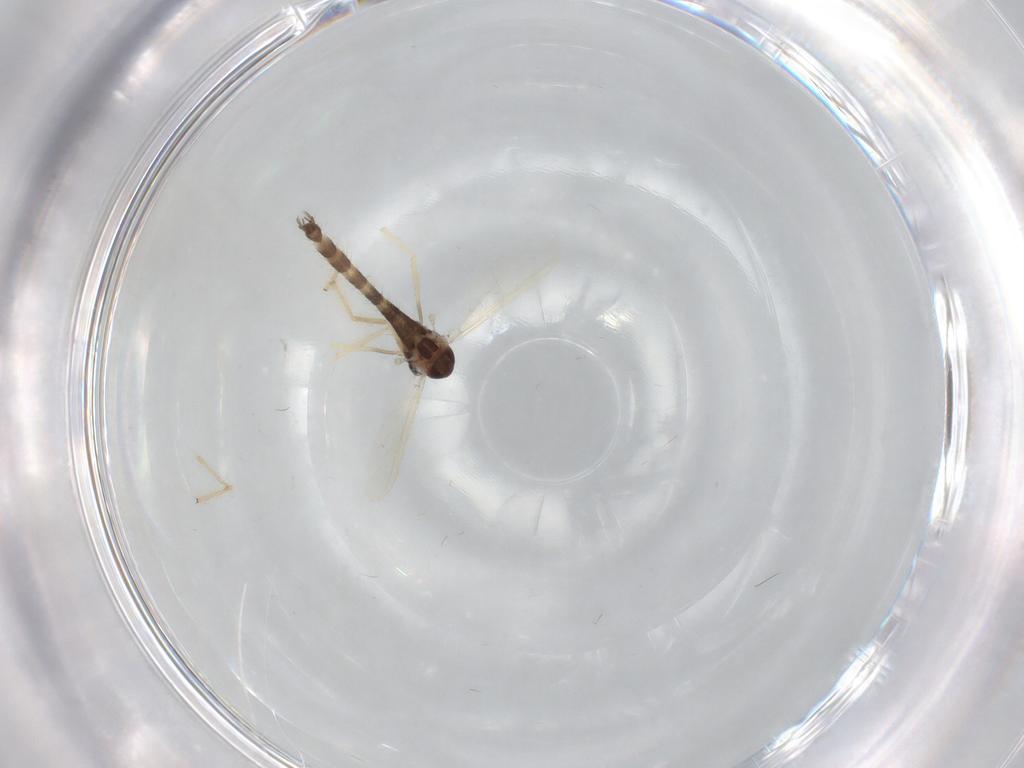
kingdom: Animalia
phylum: Arthropoda
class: Insecta
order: Diptera
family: Chironomidae
